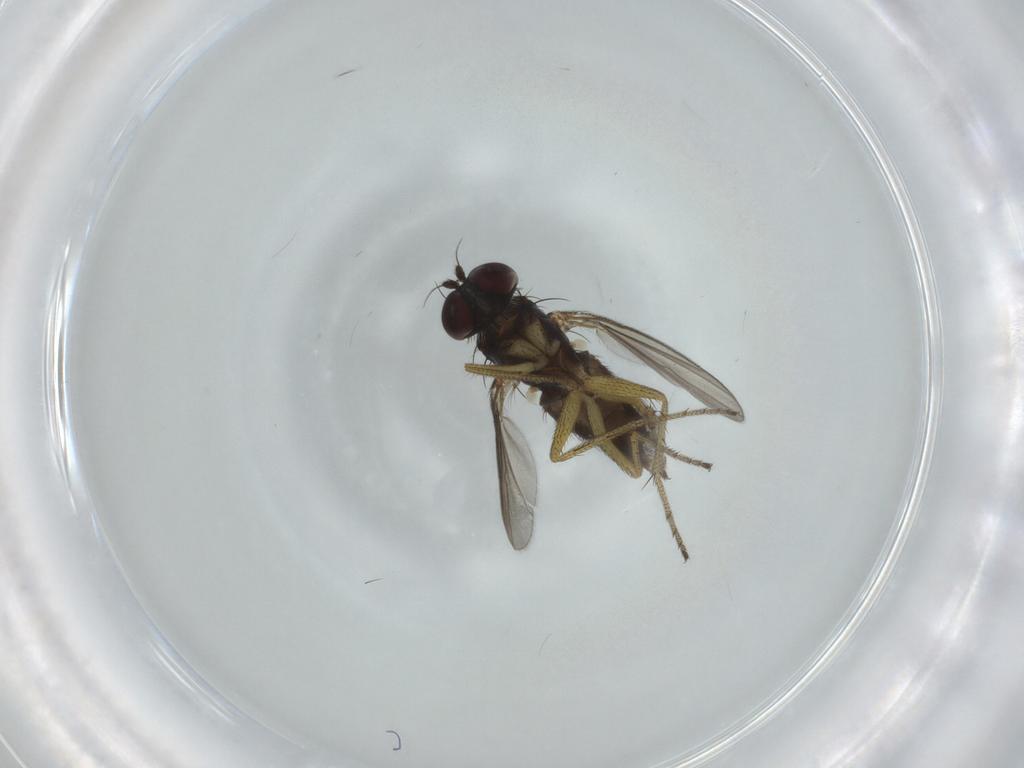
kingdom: Animalia
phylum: Arthropoda
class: Insecta
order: Diptera
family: Dolichopodidae
